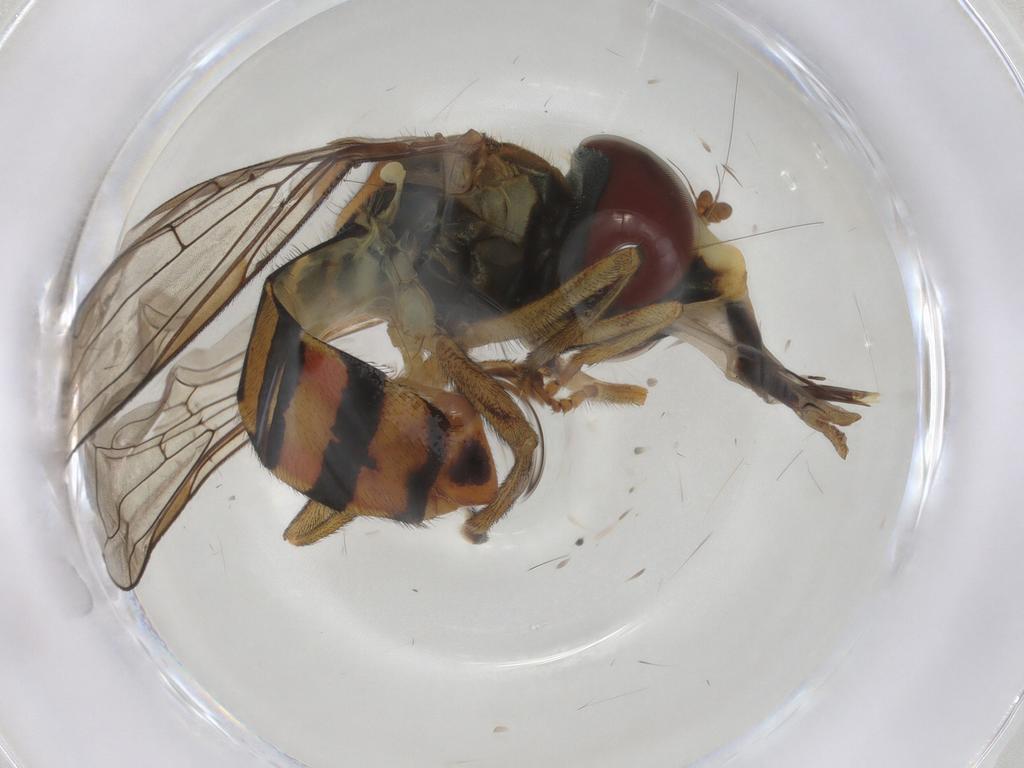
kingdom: Animalia
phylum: Arthropoda
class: Insecta
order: Diptera
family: Syrphidae
